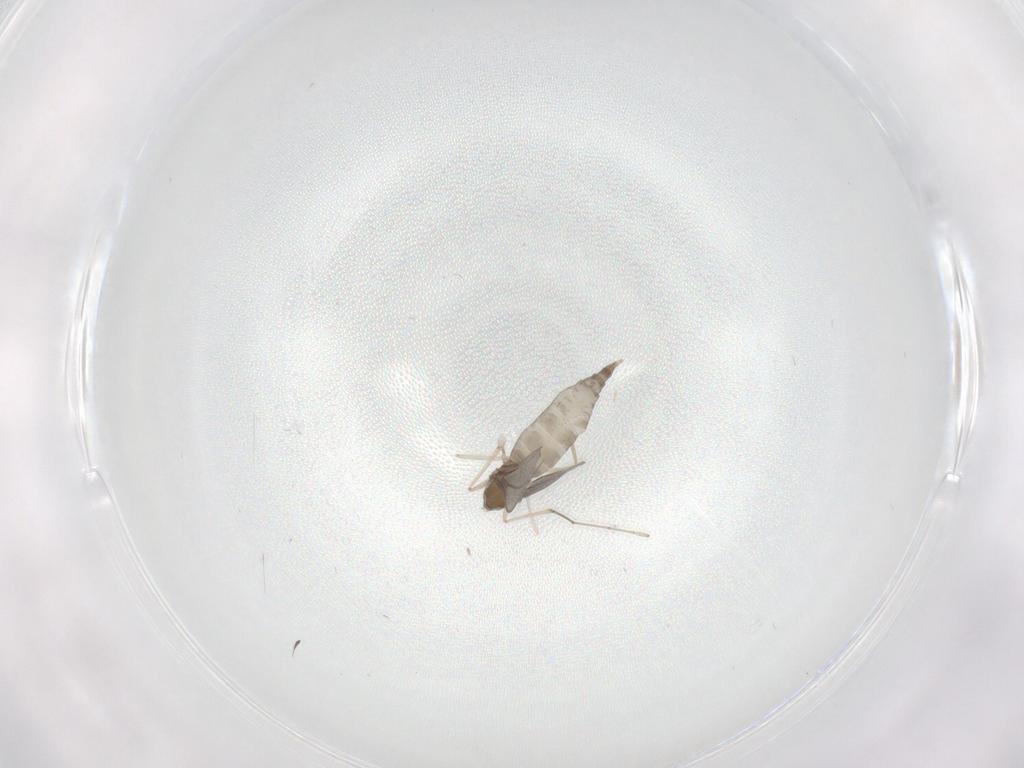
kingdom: Animalia
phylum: Arthropoda
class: Insecta
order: Diptera
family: Cecidomyiidae
